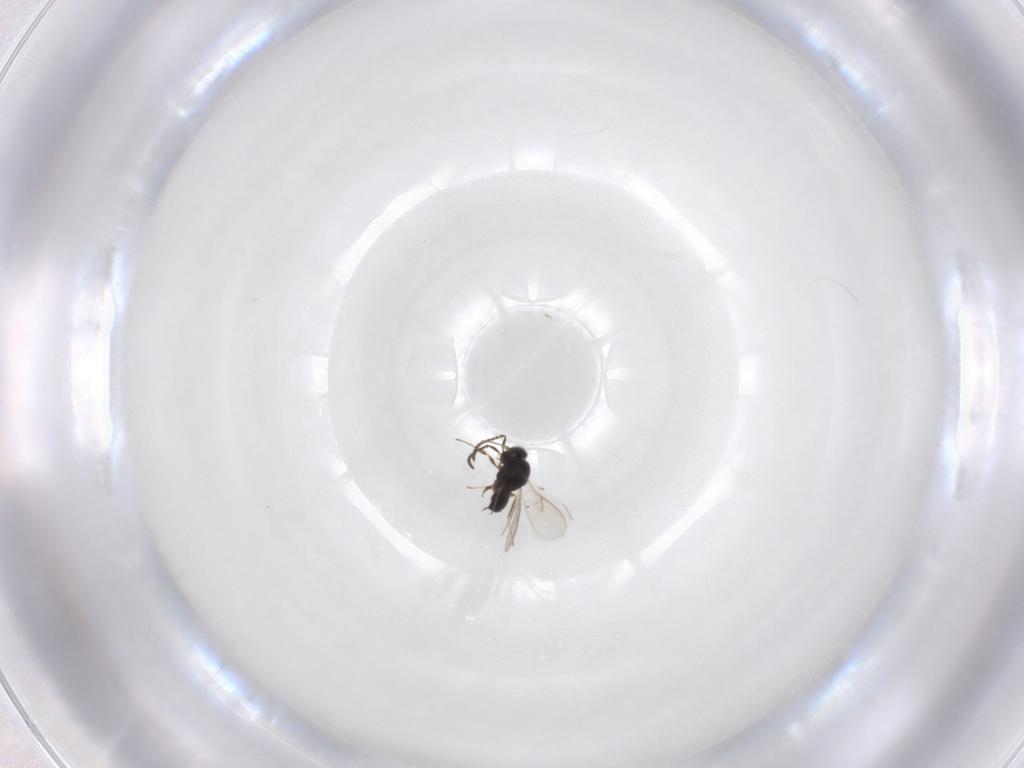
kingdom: Animalia
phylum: Arthropoda
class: Insecta
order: Hymenoptera
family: Scelionidae
